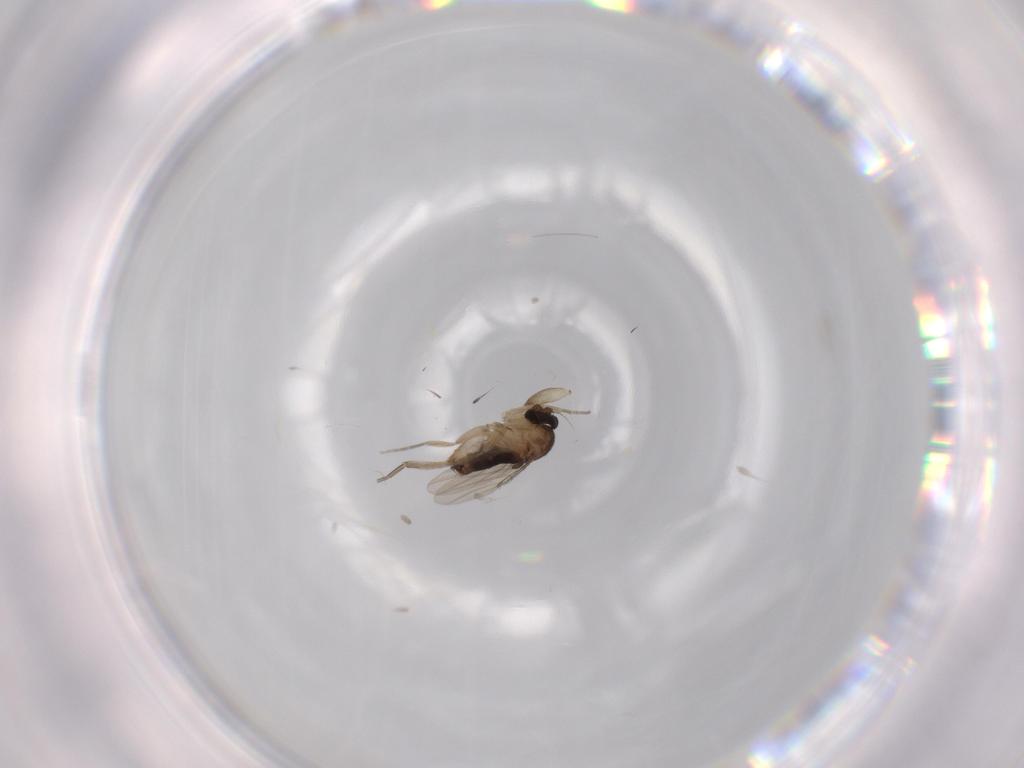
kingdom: Animalia
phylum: Arthropoda
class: Insecta
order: Diptera
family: Phoridae
